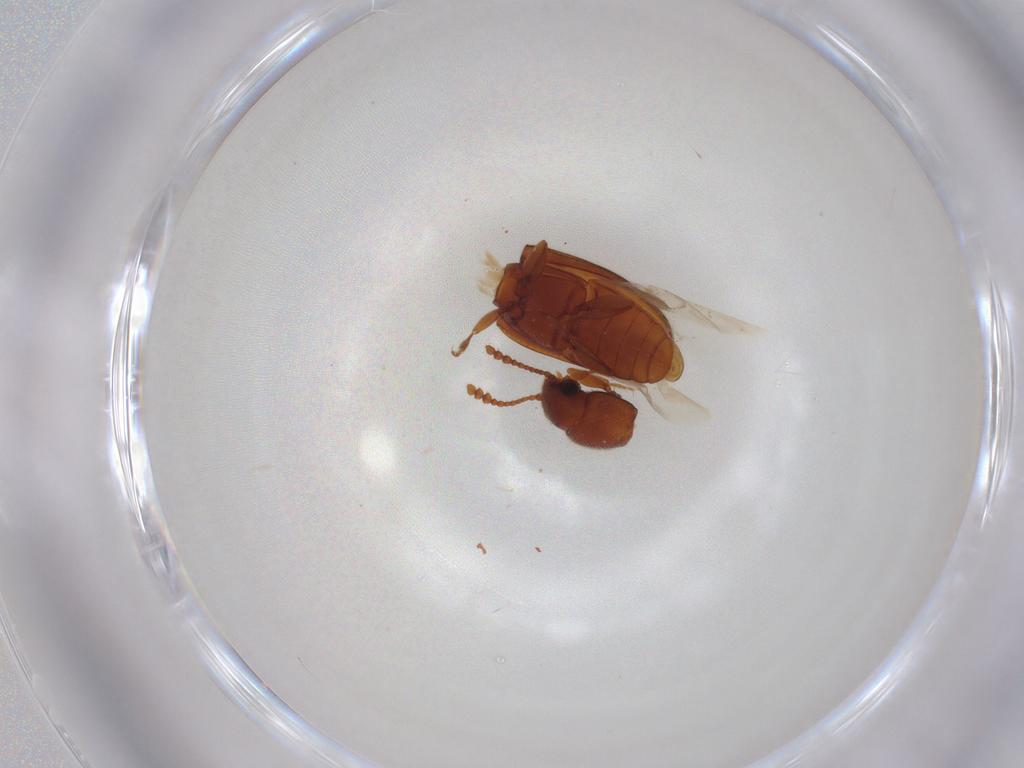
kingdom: Animalia
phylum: Arthropoda
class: Insecta
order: Coleoptera
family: Erotylidae
